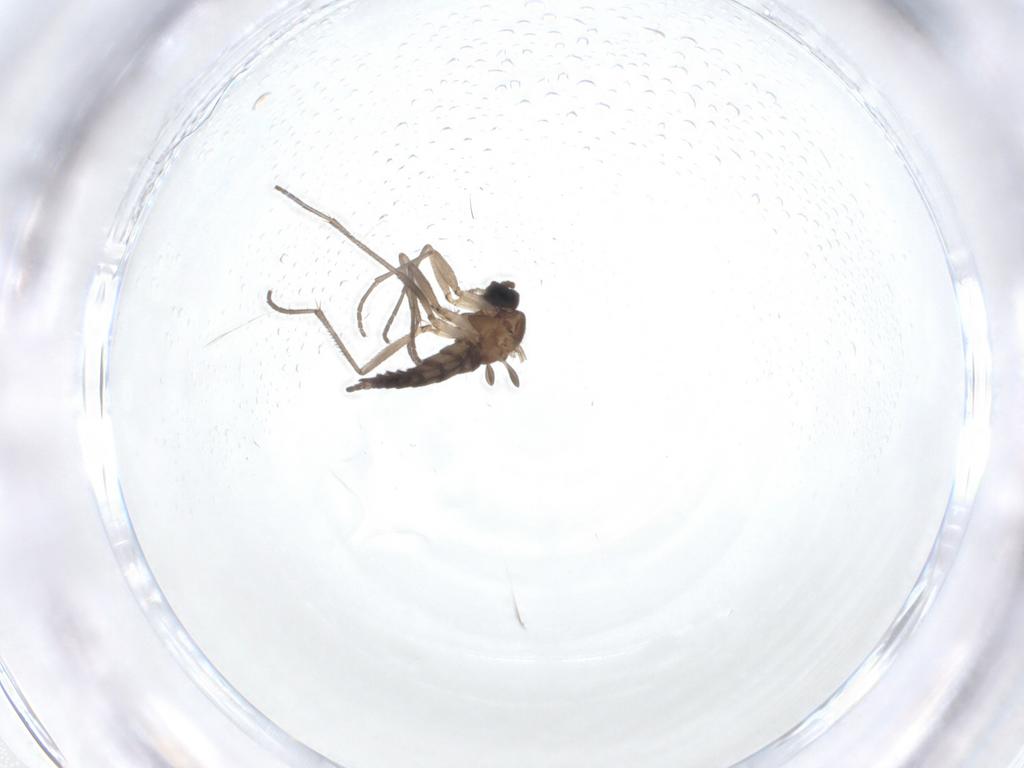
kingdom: Animalia
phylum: Arthropoda
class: Insecta
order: Diptera
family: Sciaridae
